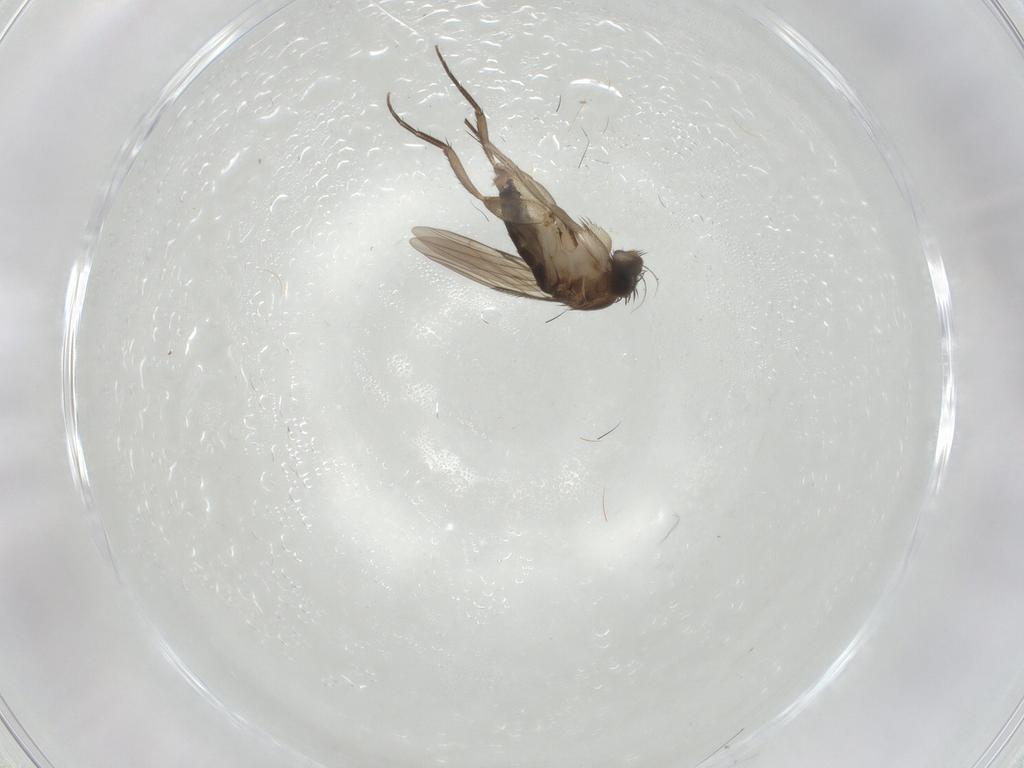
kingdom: Animalia
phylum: Arthropoda
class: Insecta
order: Diptera
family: Phoridae
